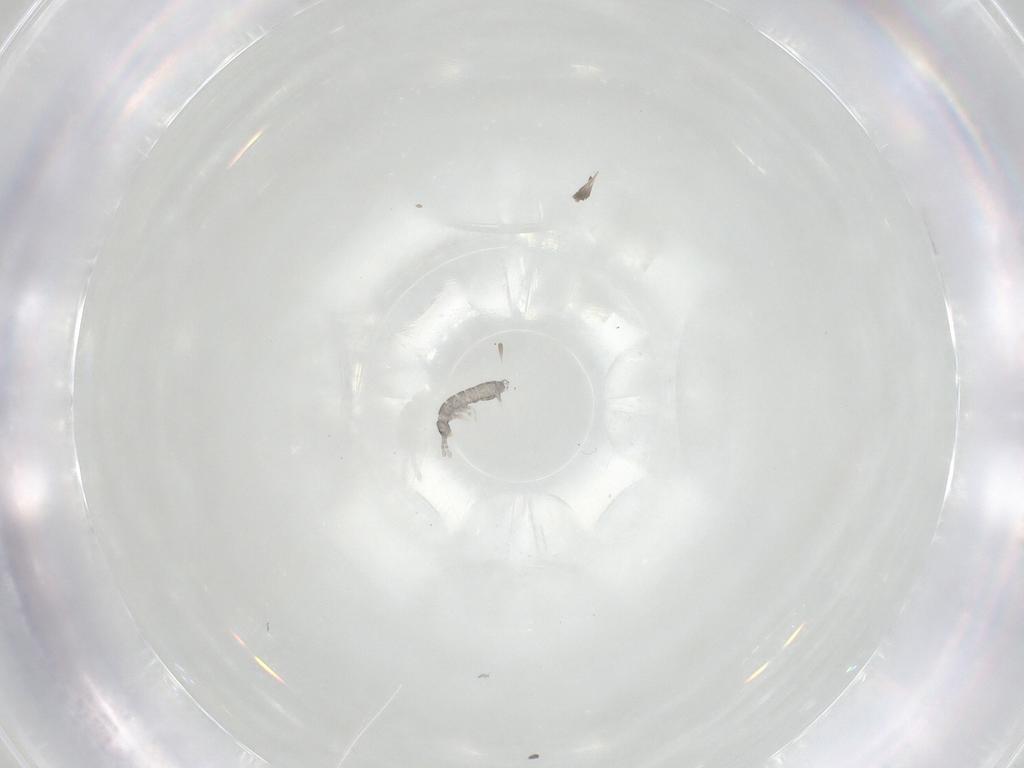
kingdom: Animalia
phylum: Arthropoda
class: Collembola
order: Entomobryomorpha
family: Isotomidae
